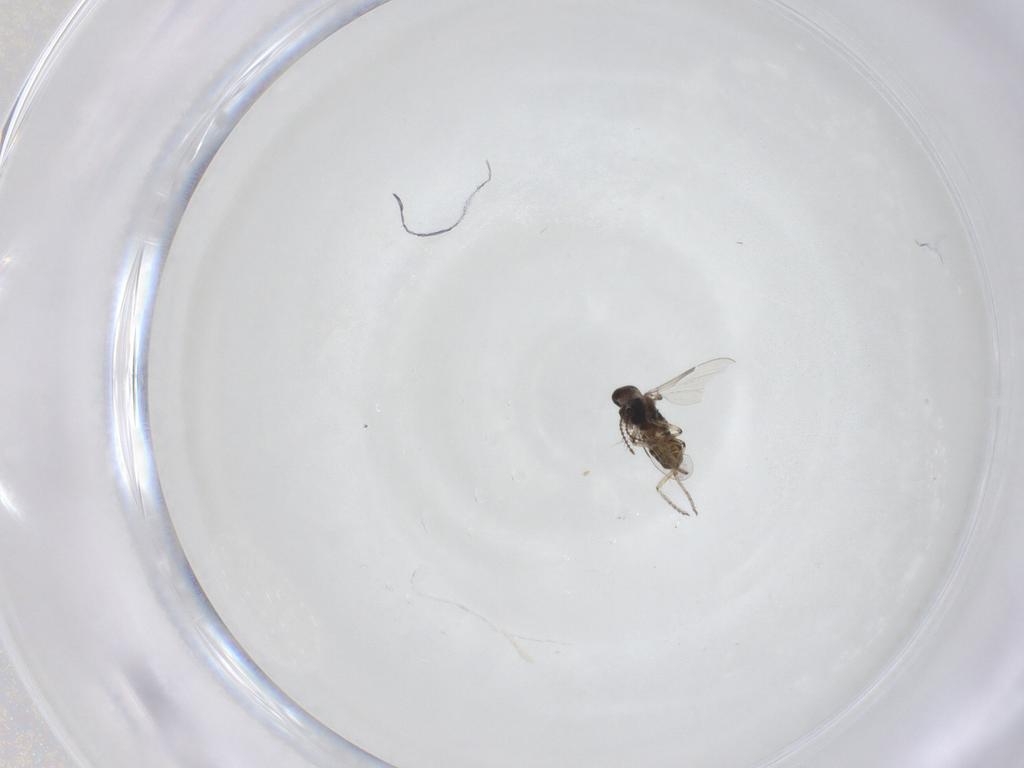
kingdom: Animalia
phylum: Arthropoda
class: Insecta
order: Diptera
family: Ceratopogonidae
